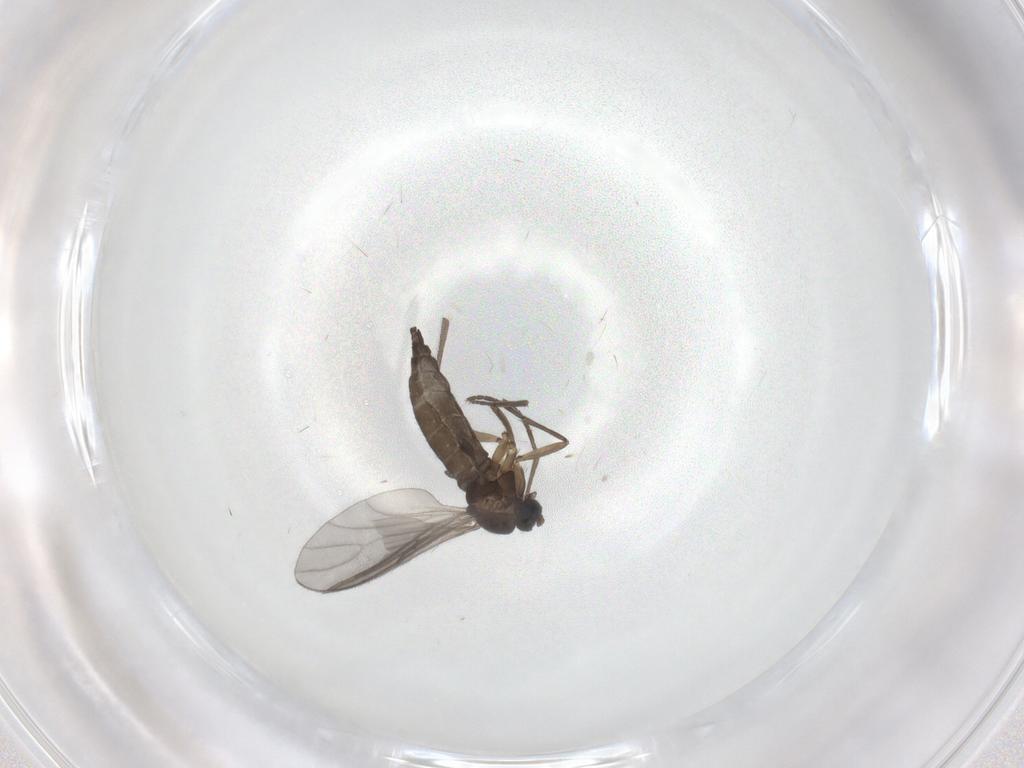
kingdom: Animalia
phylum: Arthropoda
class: Insecta
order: Diptera
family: Sciaridae
